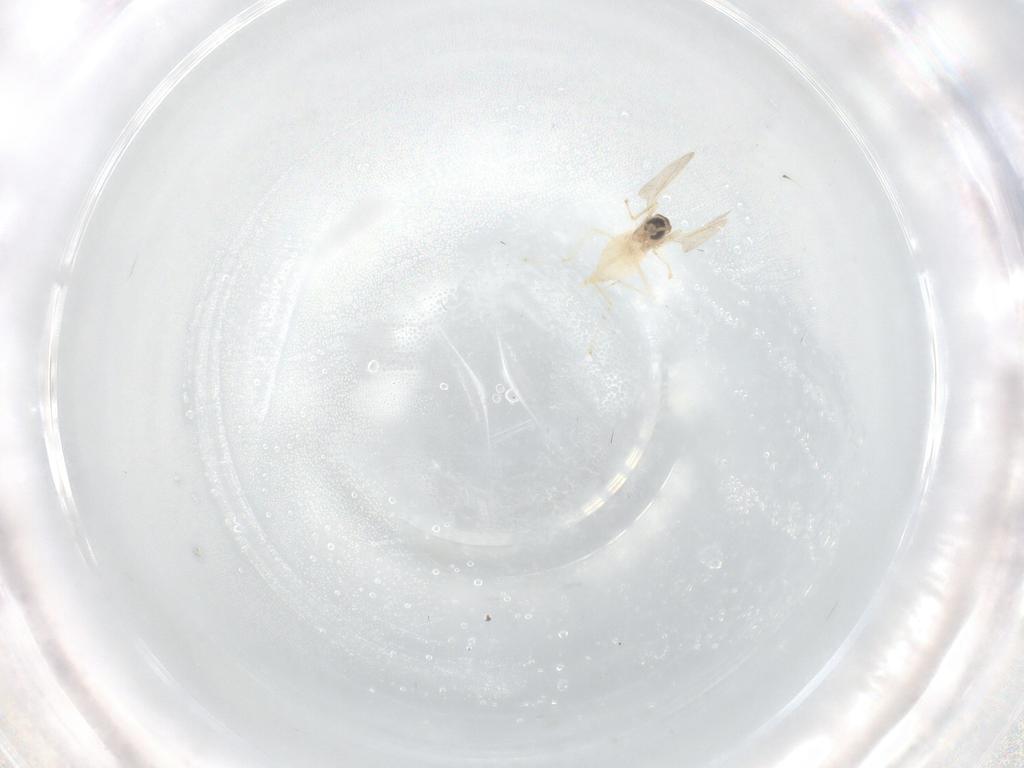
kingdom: Animalia
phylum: Arthropoda
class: Insecta
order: Diptera
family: Cecidomyiidae
